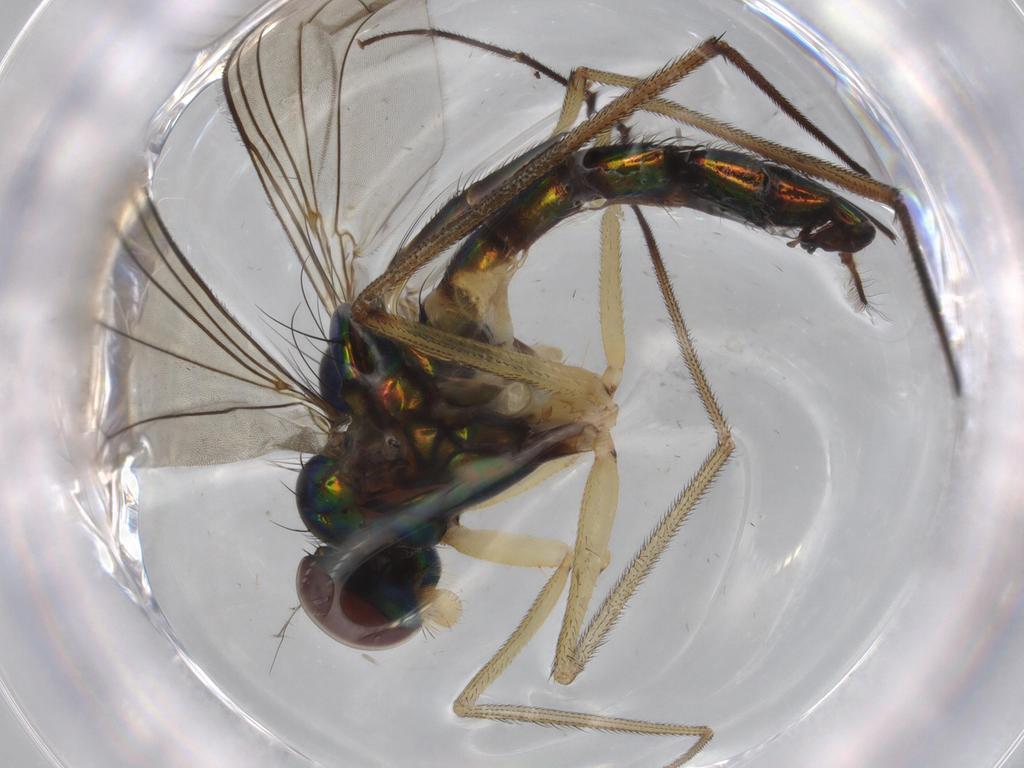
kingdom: Animalia
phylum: Arthropoda
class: Insecta
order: Diptera
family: Dolichopodidae
